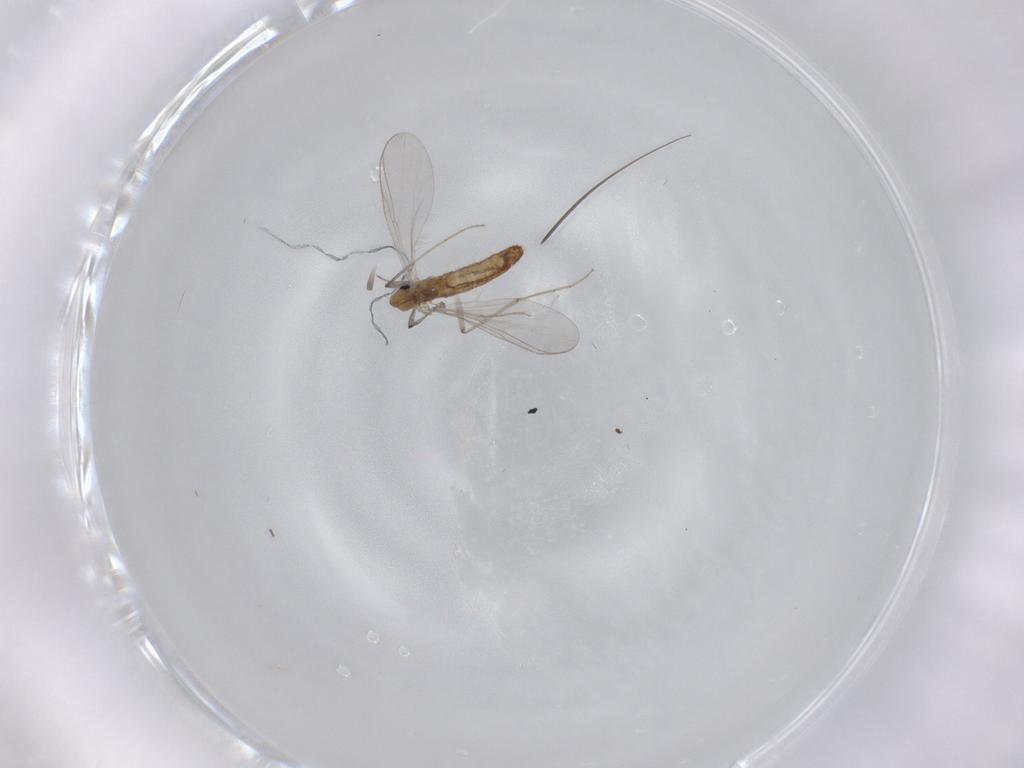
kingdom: Animalia
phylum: Arthropoda
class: Insecta
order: Diptera
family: Chironomidae
